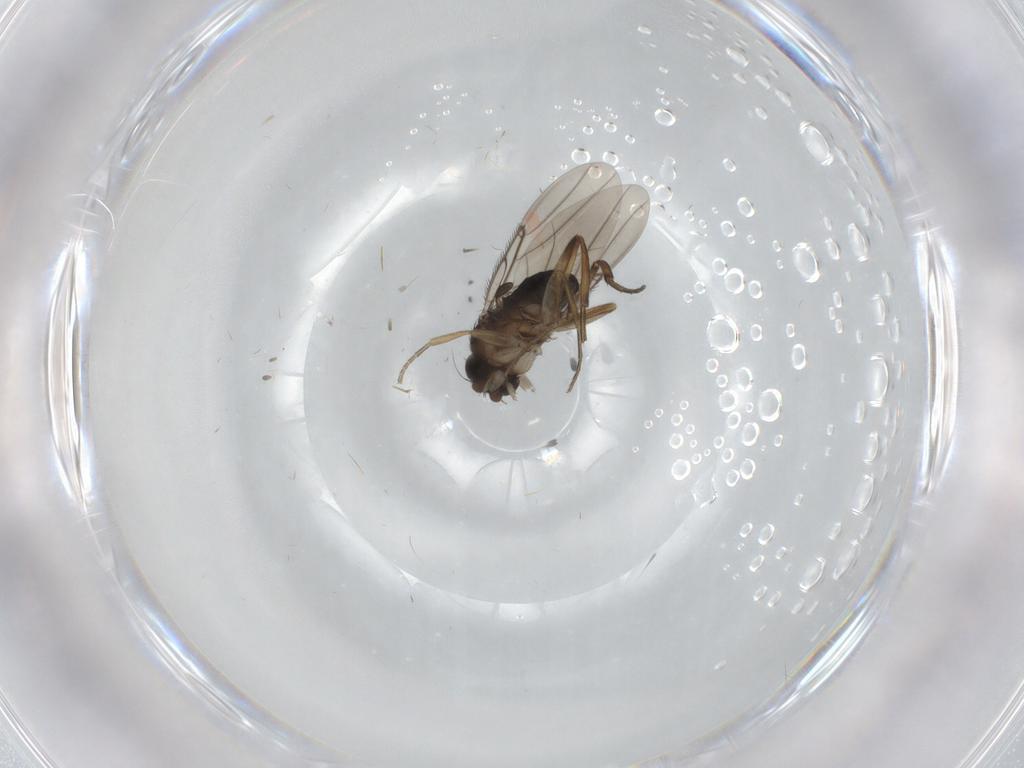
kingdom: Animalia
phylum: Arthropoda
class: Insecta
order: Diptera
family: Phoridae
